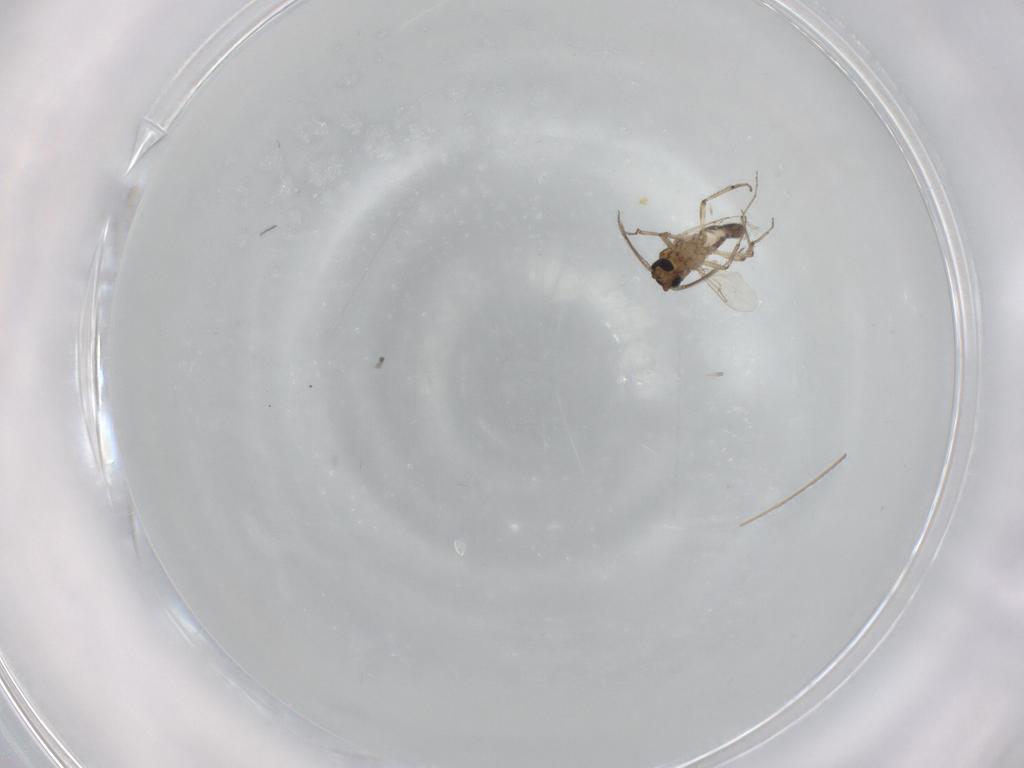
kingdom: Animalia
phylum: Arthropoda
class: Insecta
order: Diptera
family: Ceratopogonidae
